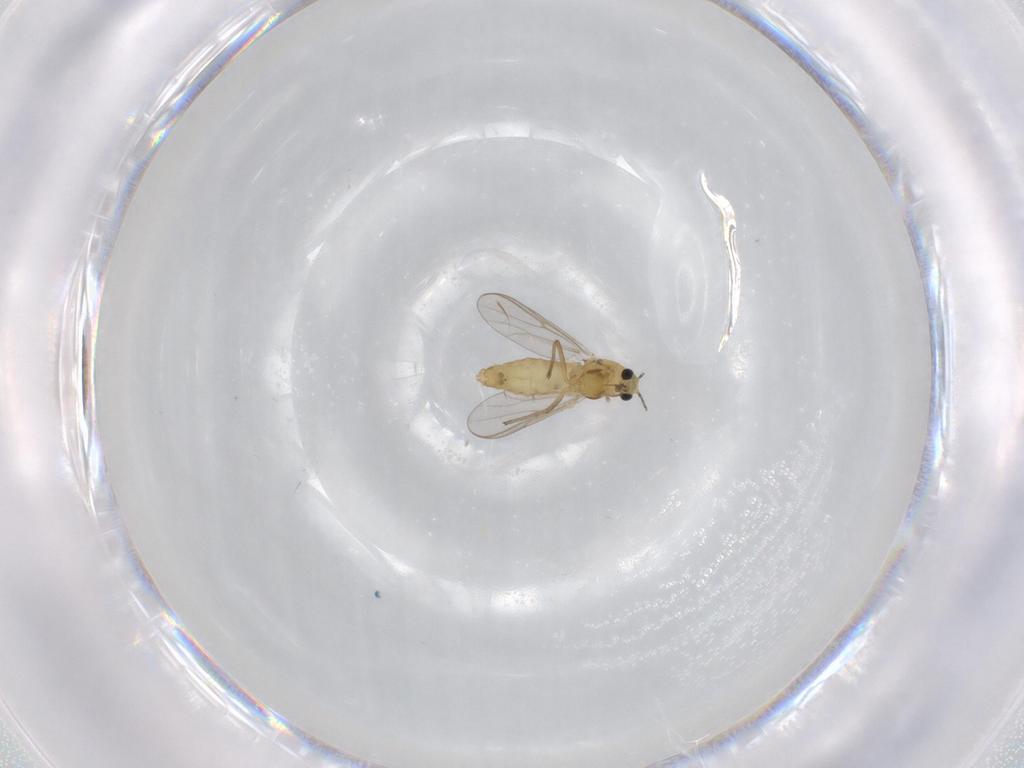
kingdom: Animalia
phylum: Arthropoda
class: Insecta
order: Diptera
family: Chironomidae
